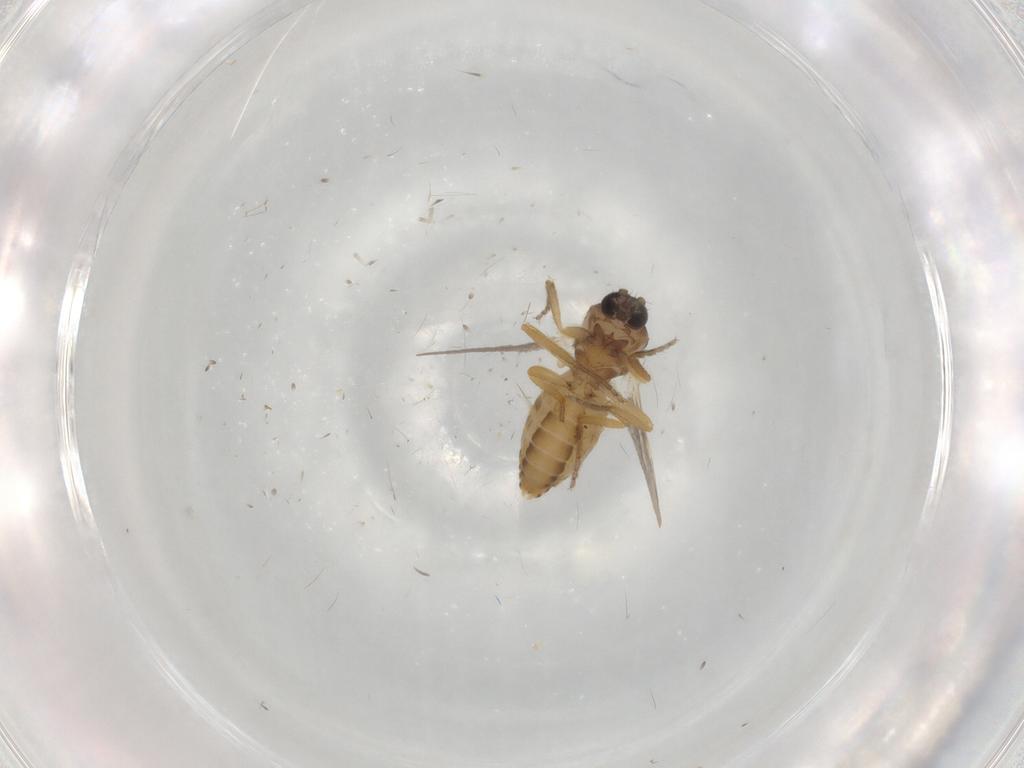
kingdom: Animalia
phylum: Arthropoda
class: Insecta
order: Diptera
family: Ceratopogonidae
